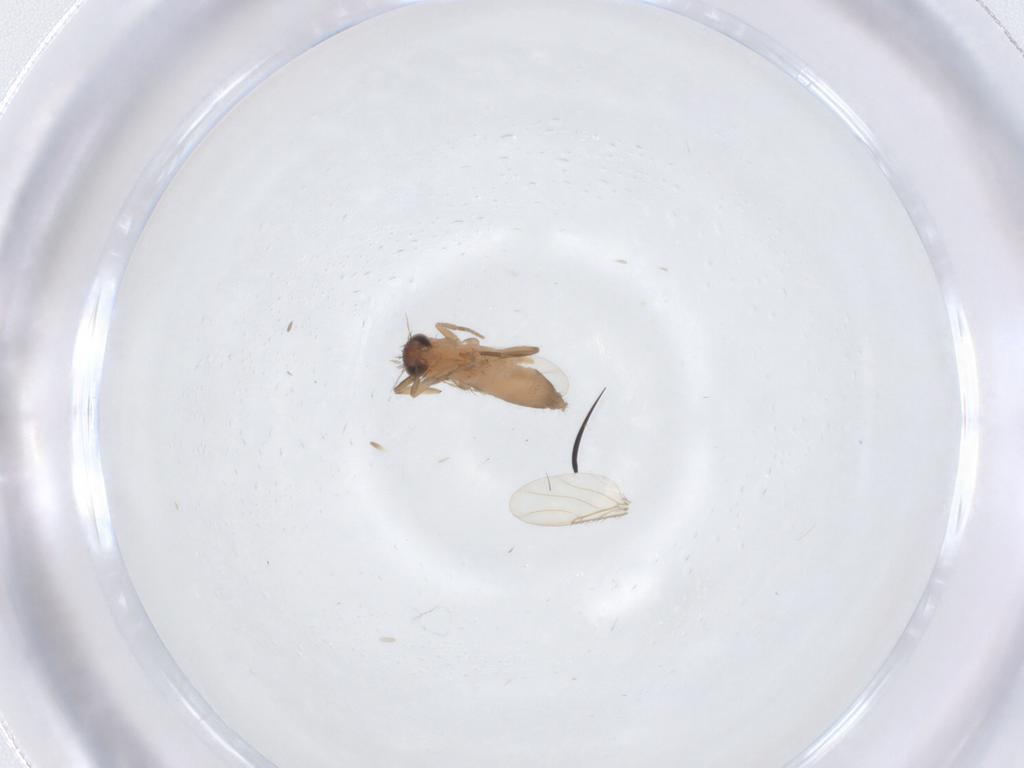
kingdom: Animalia
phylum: Arthropoda
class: Insecta
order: Diptera
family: Phoridae
